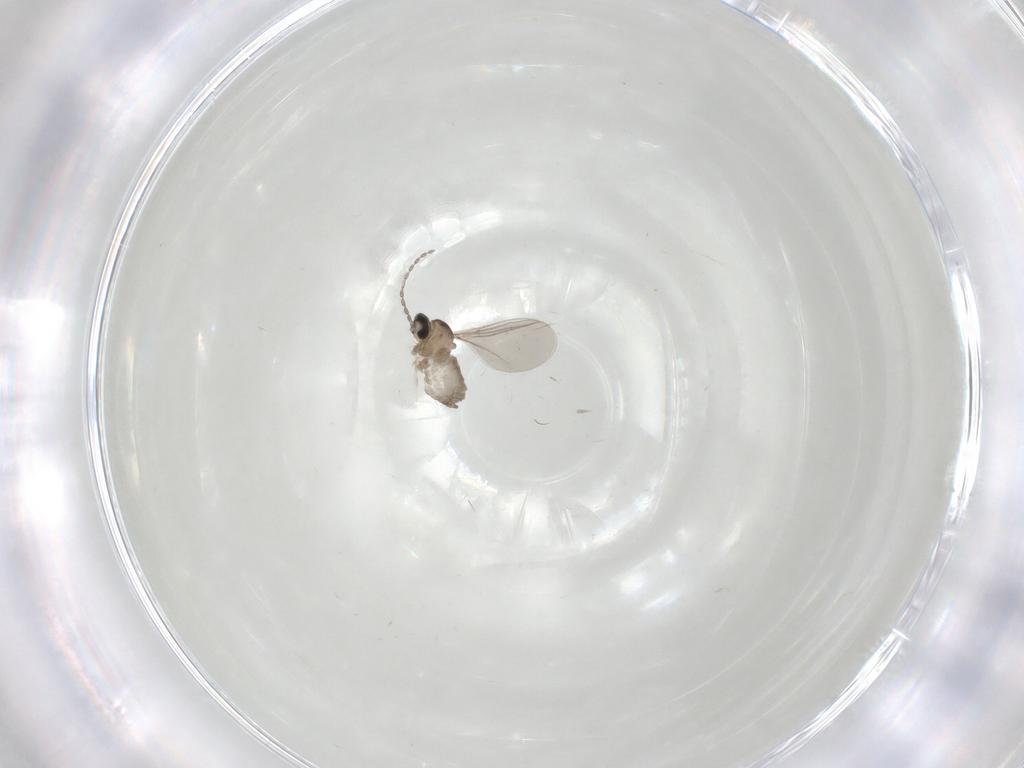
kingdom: Animalia
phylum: Arthropoda
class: Insecta
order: Diptera
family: Cecidomyiidae
